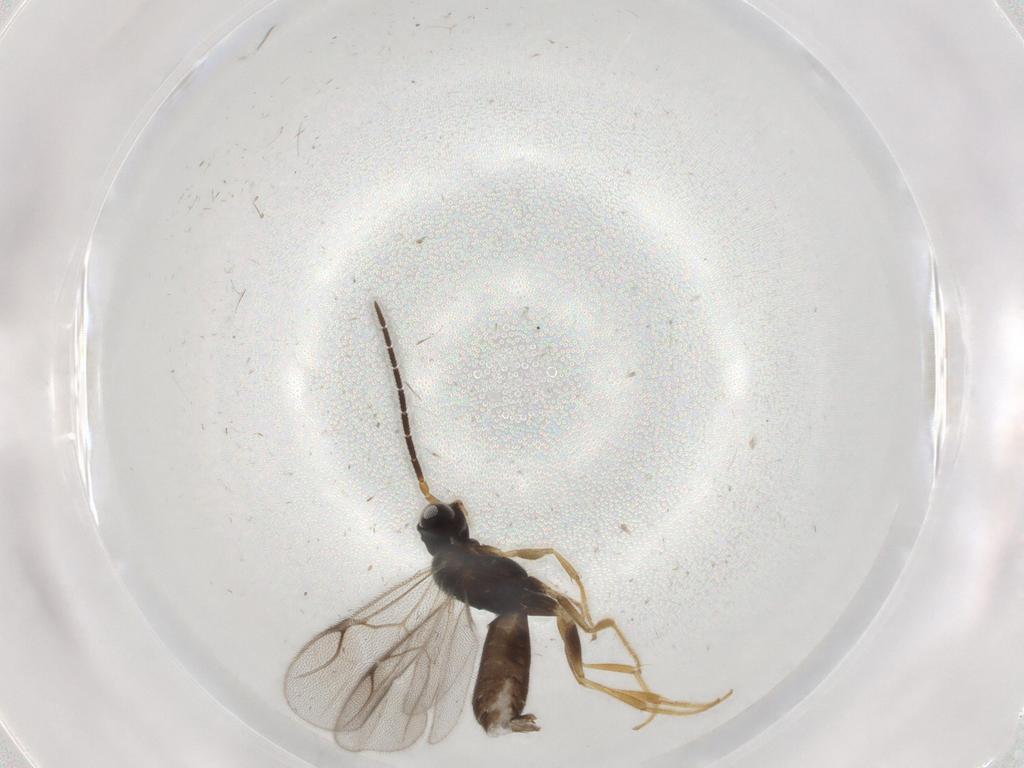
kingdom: Animalia
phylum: Arthropoda
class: Insecta
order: Hymenoptera
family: Dryinidae
